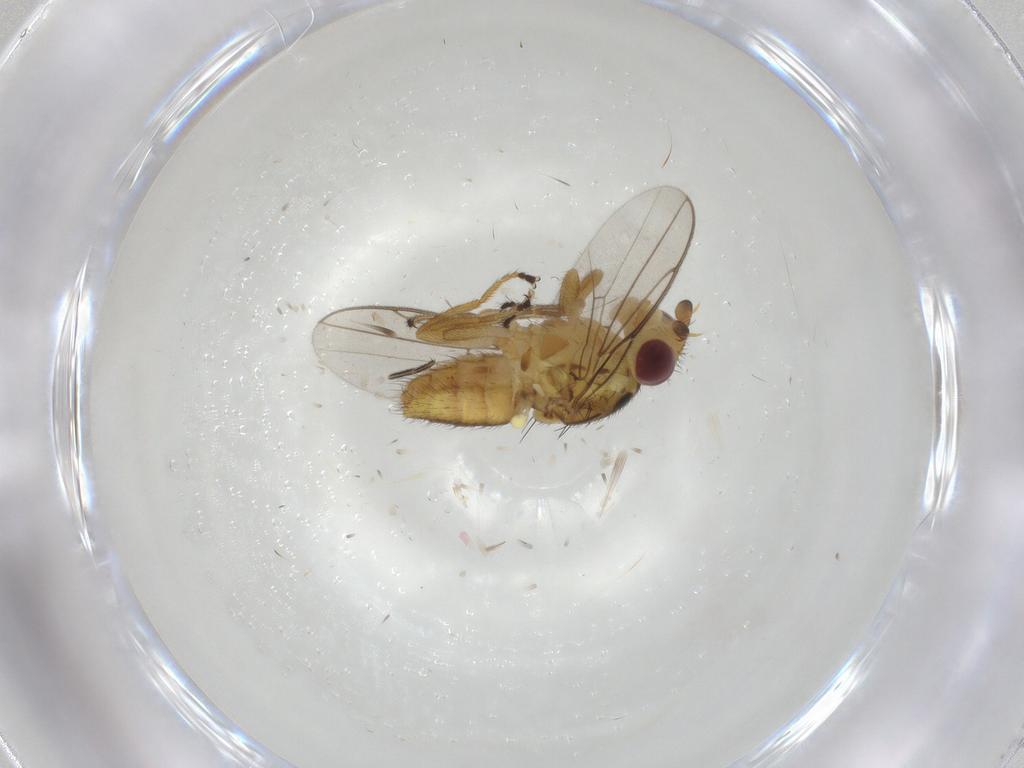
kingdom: Animalia
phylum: Arthropoda
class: Insecta
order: Diptera
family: Chloropidae
